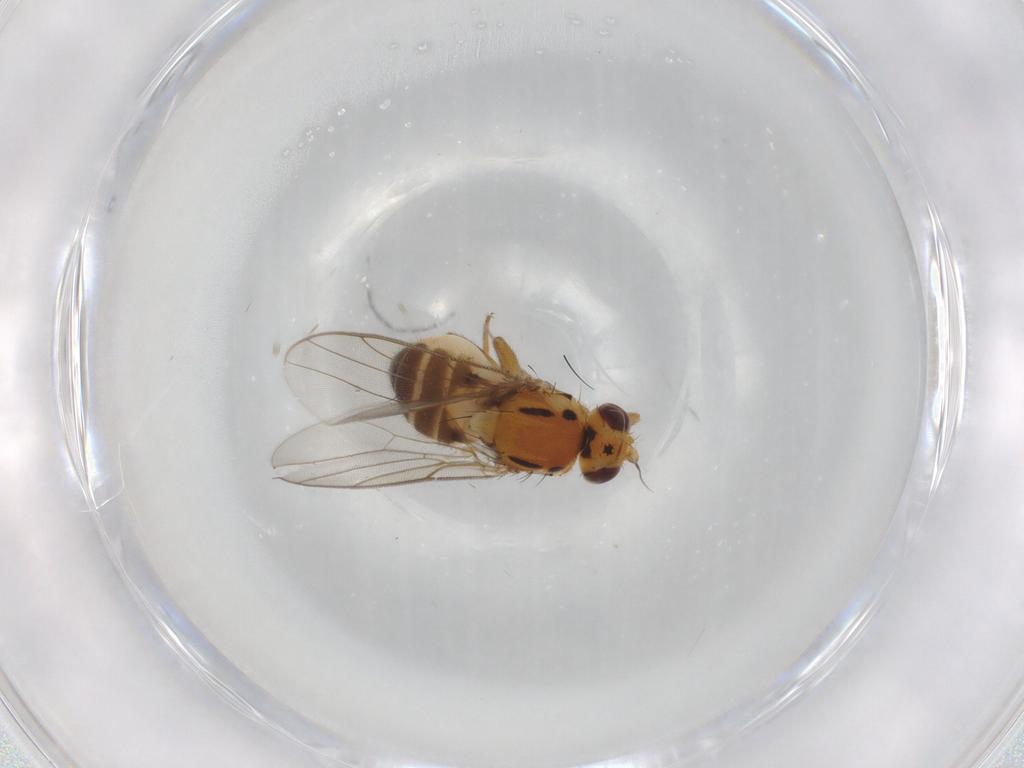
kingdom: Animalia
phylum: Arthropoda
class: Insecta
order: Diptera
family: Chloropidae
